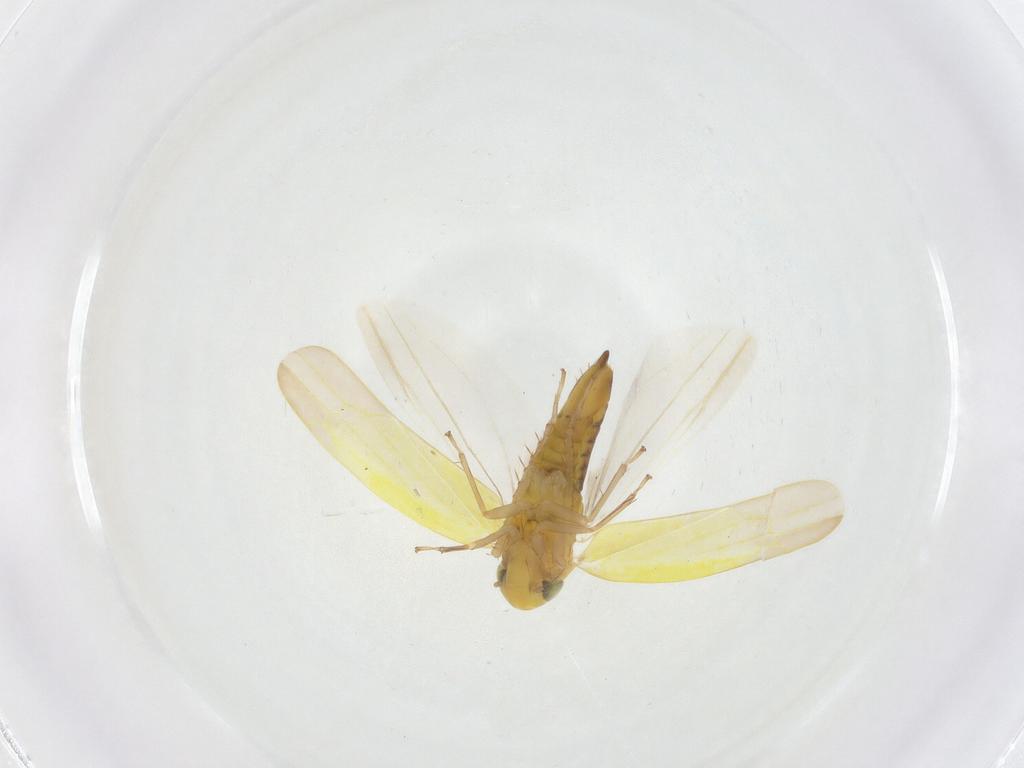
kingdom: Animalia
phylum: Arthropoda
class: Insecta
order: Hemiptera
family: Cicadellidae
